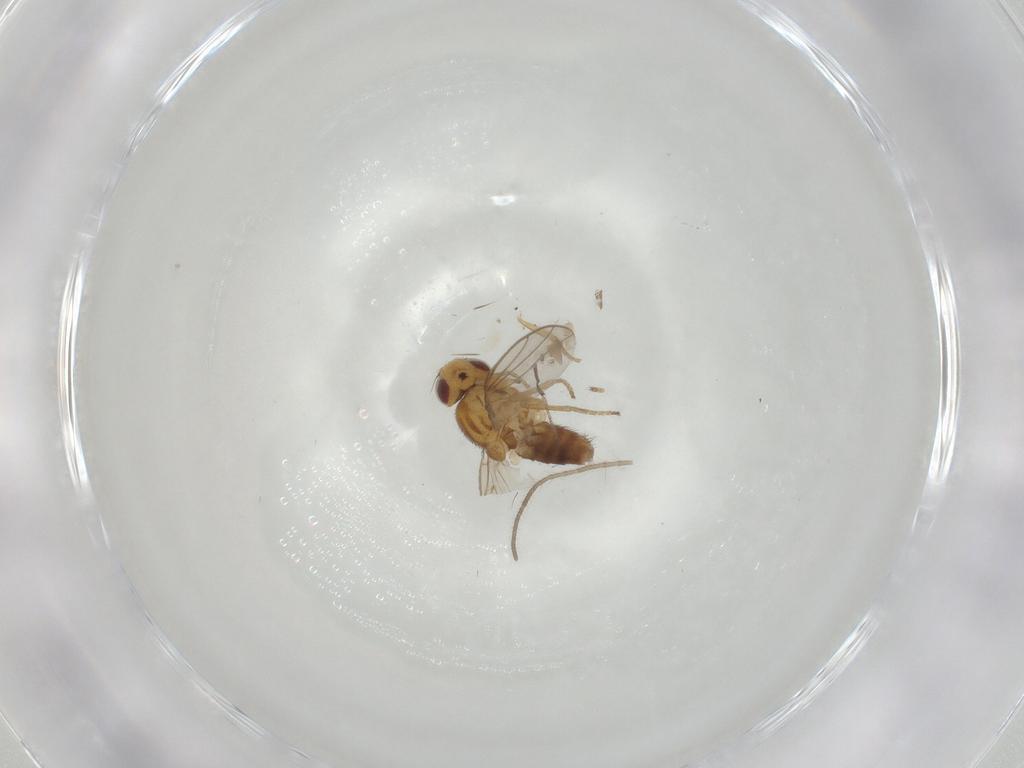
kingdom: Animalia
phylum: Arthropoda
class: Insecta
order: Diptera
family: Chloropidae
